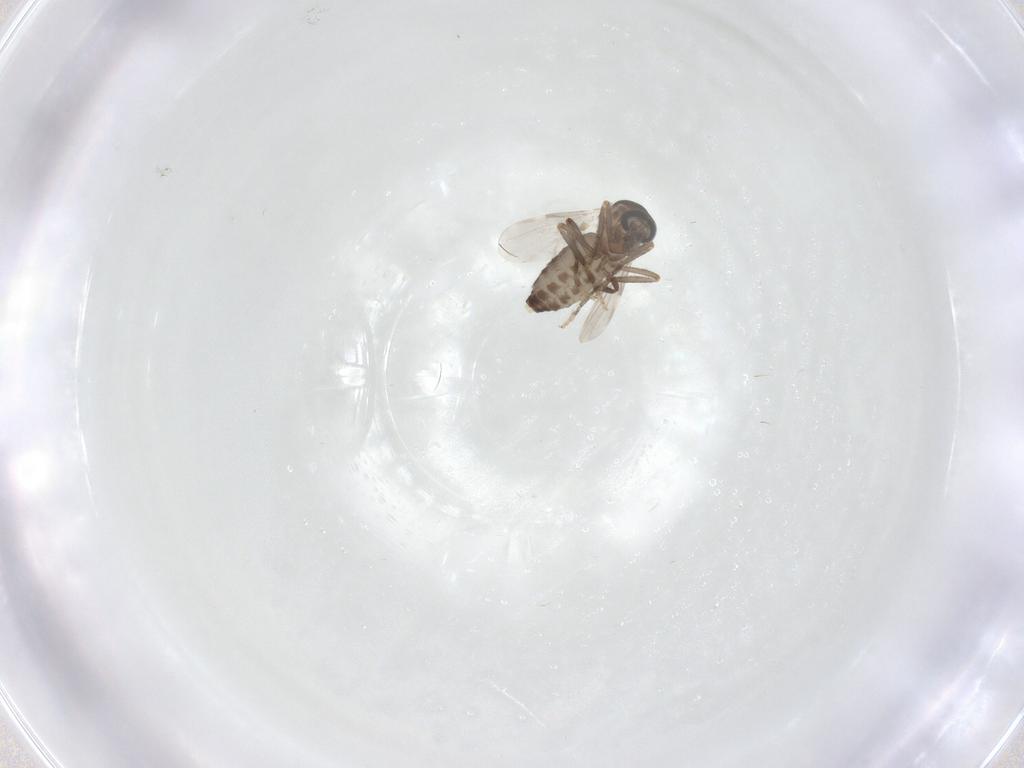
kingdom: Animalia
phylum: Arthropoda
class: Insecta
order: Diptera
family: Ceratopogonidae
